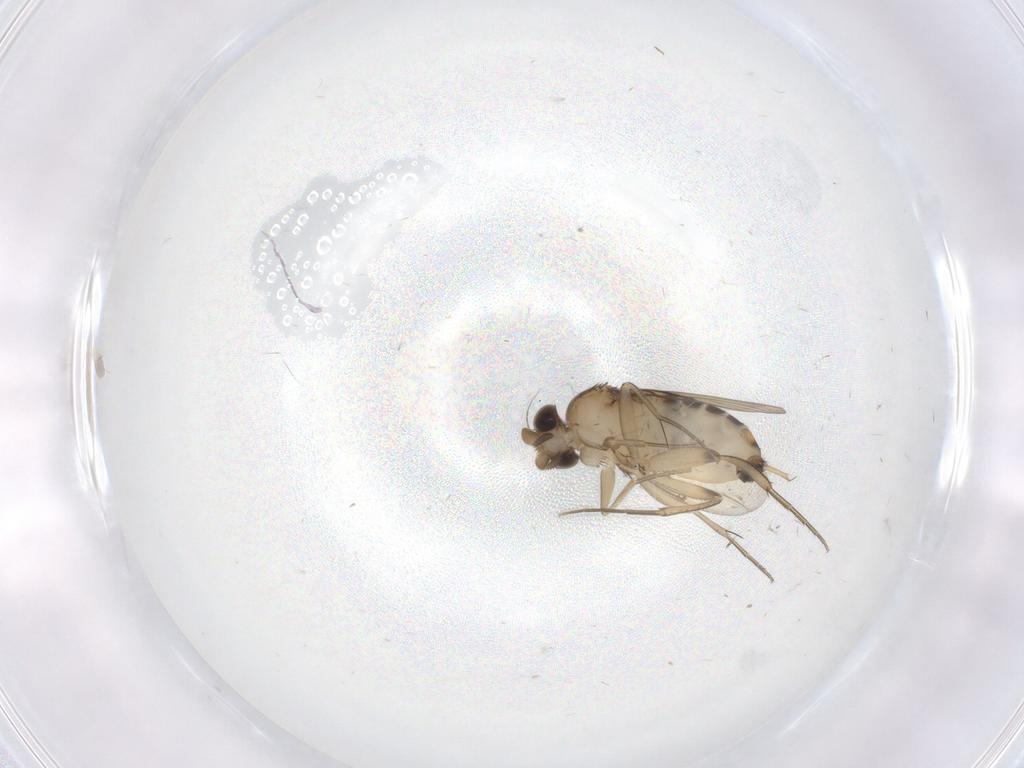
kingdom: Animalia
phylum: Arthropoda
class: Insecta
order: Diptera
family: Phoridae
